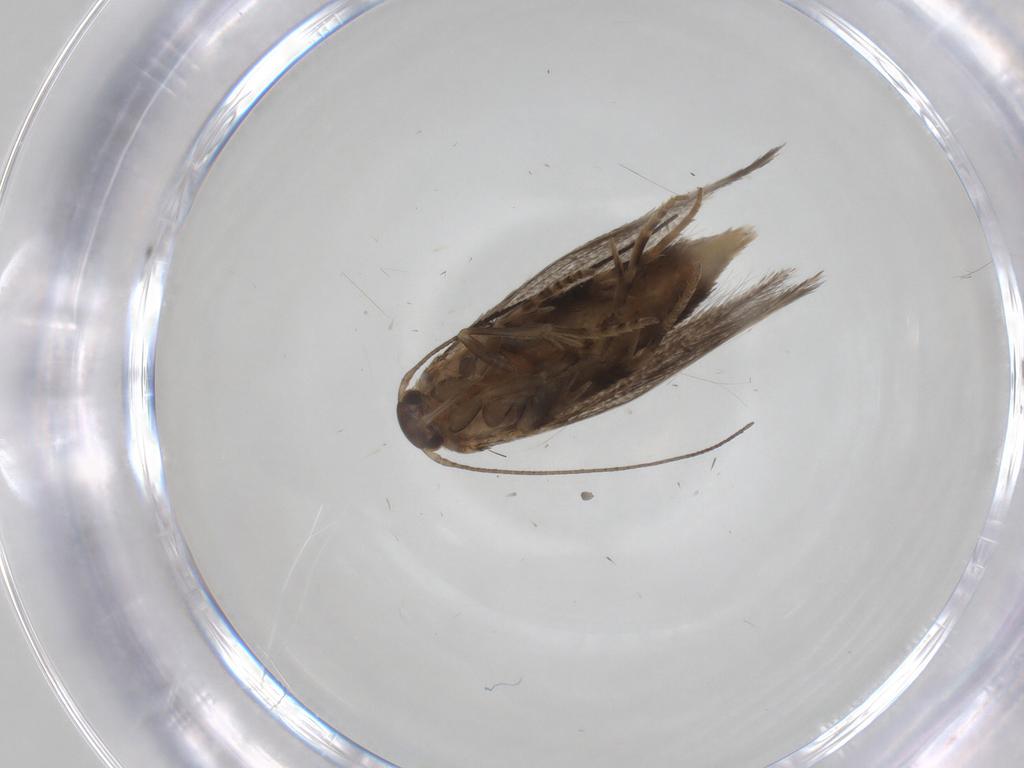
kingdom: Animalia
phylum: Arthropoda
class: Insecta
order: Lepidoptera
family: Elachistidae
